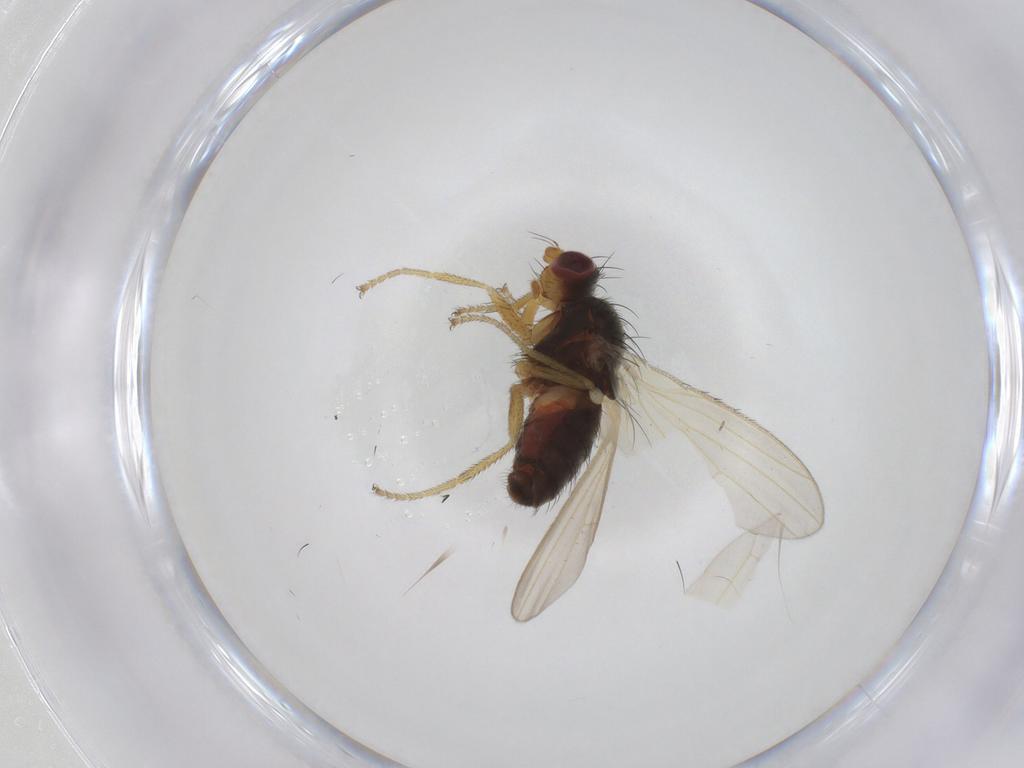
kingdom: Animalia
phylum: Arthropoda
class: Insecta
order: Diptera
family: Heleomyzidae
